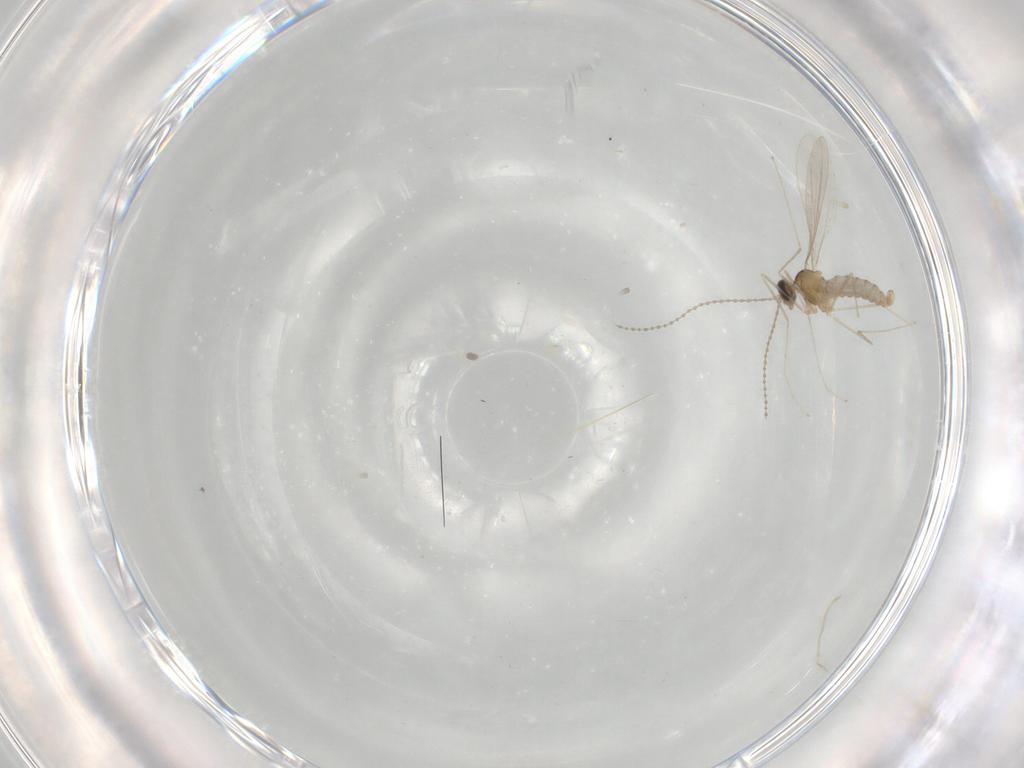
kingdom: Animalia
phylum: Arthropoda
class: Insecta
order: Diptera
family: Cecidomyiidae
